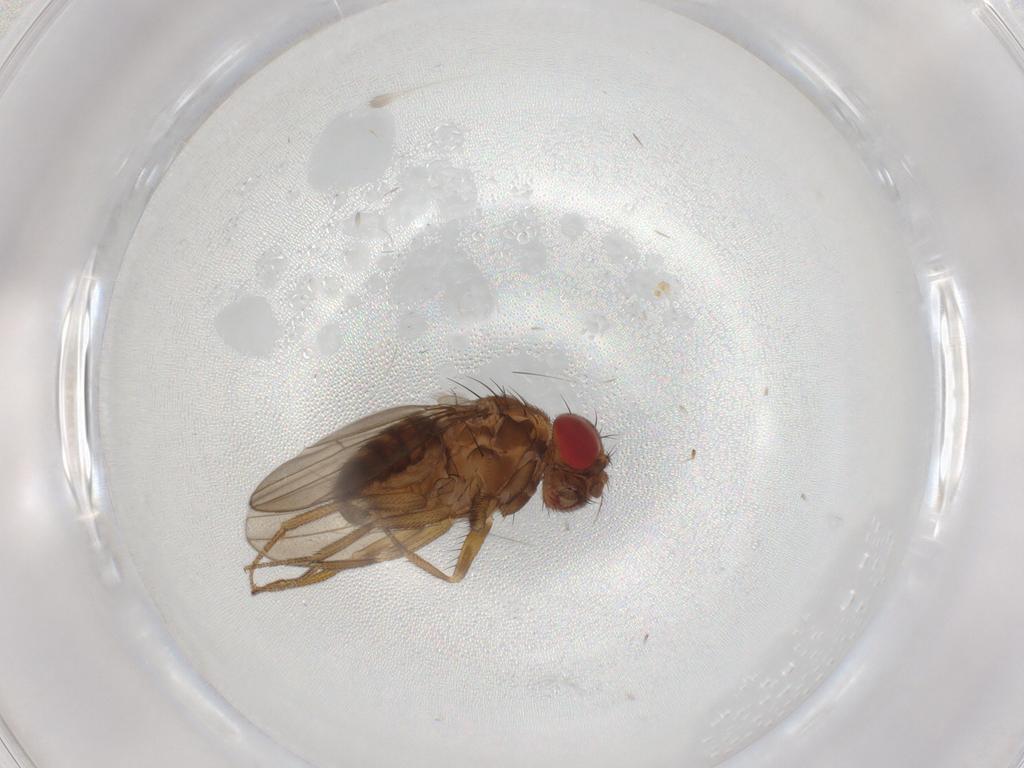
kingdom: Animalia
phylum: Arthropoda
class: Insecta
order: Diptera
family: Drosophilidae
